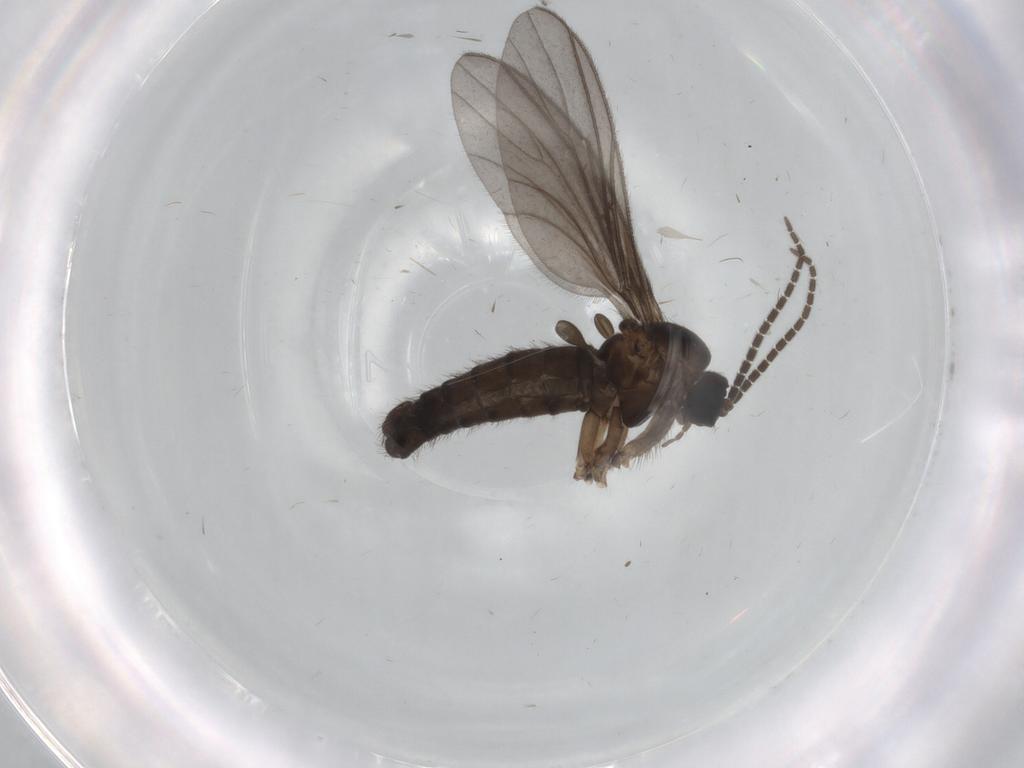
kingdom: Animalia
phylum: Arthropoda
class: Insecta
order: Diptera
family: Sciaridae
